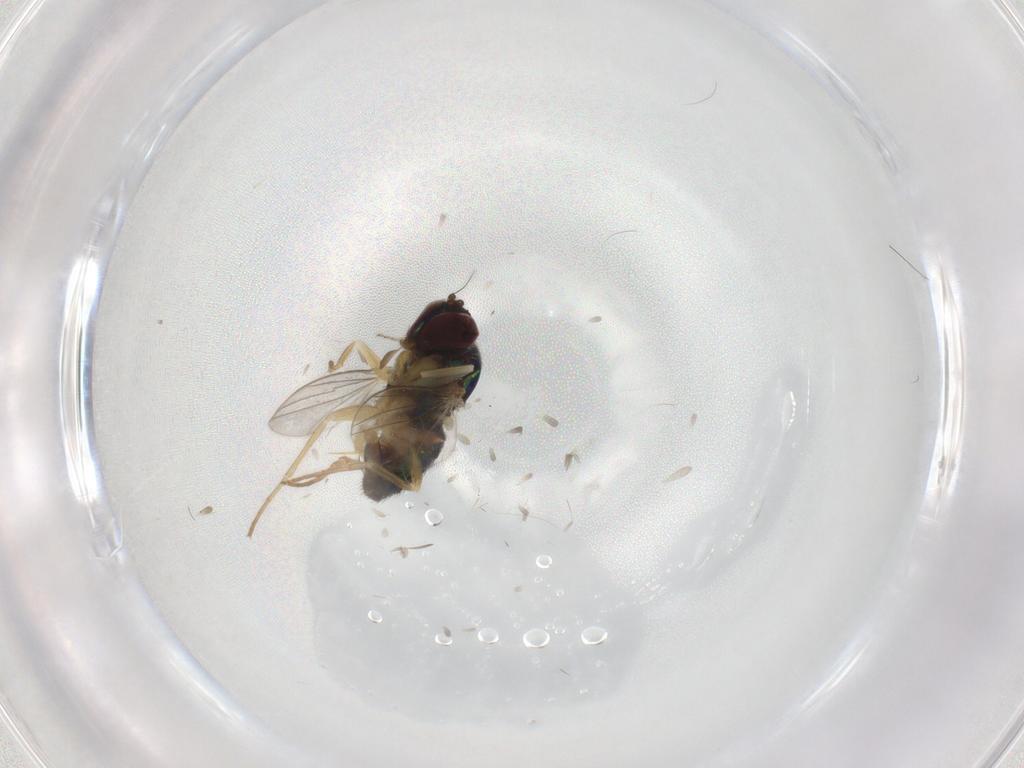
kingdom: Animalia
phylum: Arthropoda
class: Insecta
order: Diptera
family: Dolichopodidae
